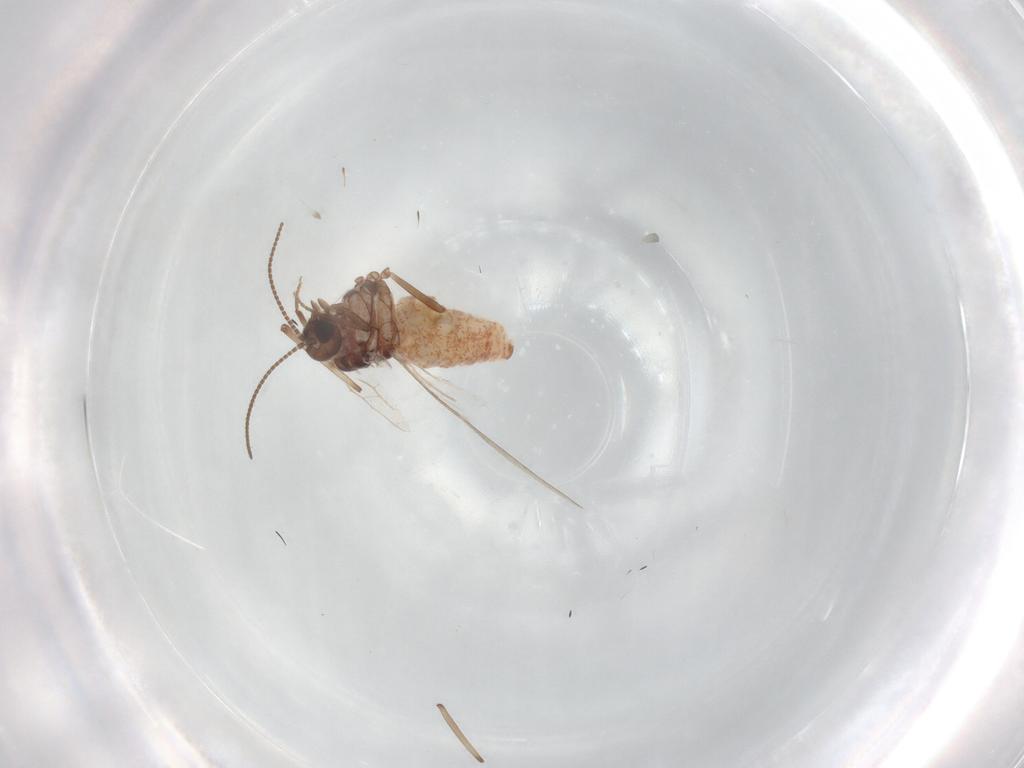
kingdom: Animalia
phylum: Arthropoda
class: Insecta
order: Neuroptera
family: Coniopterygidae
